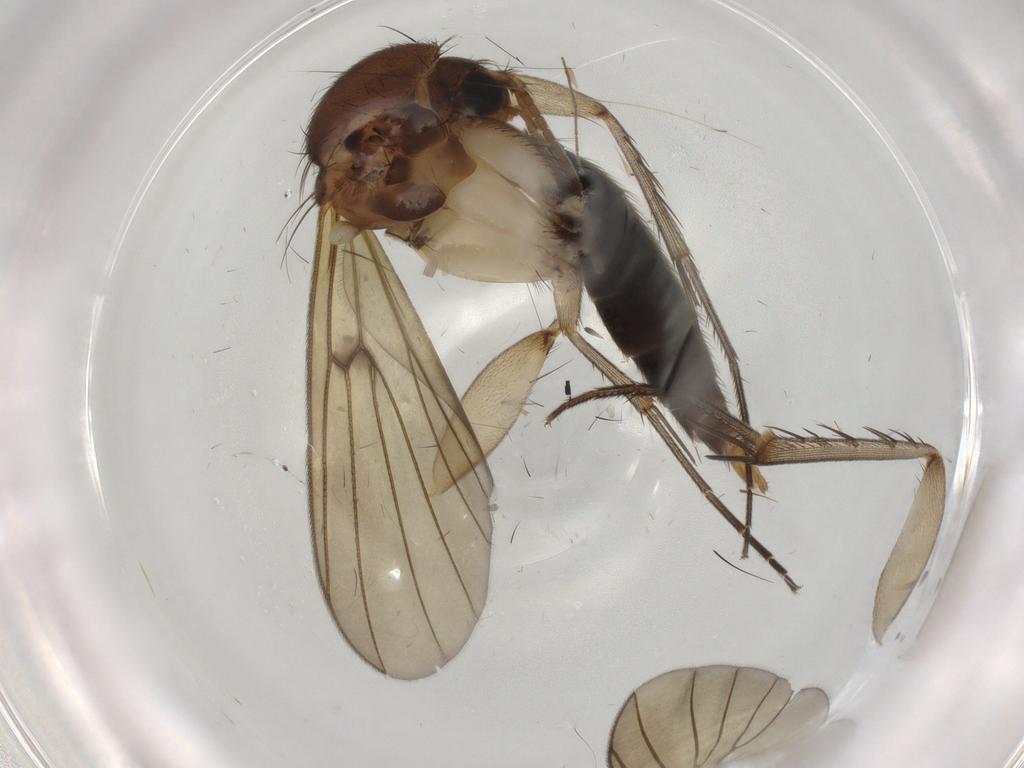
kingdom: Animalia
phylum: Arthropoda
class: Insecta
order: Diptera
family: Mycetophilidae
